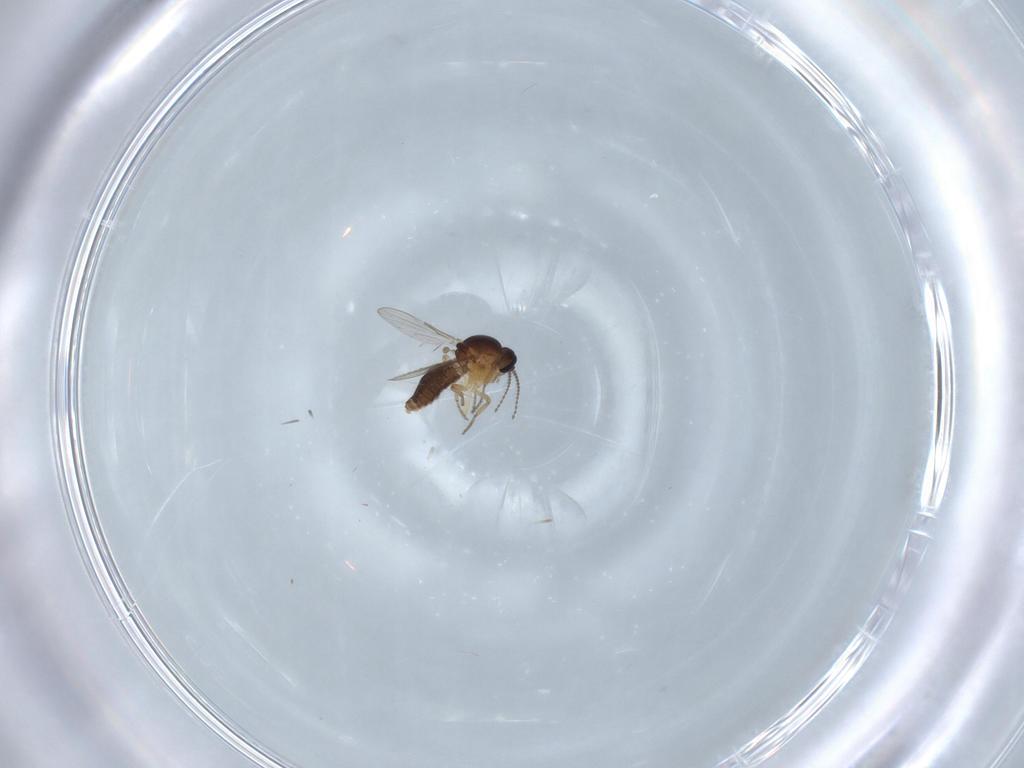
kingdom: Animalia
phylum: Arthropoda
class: Insecta
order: Diptera
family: Ceratopogonidae
